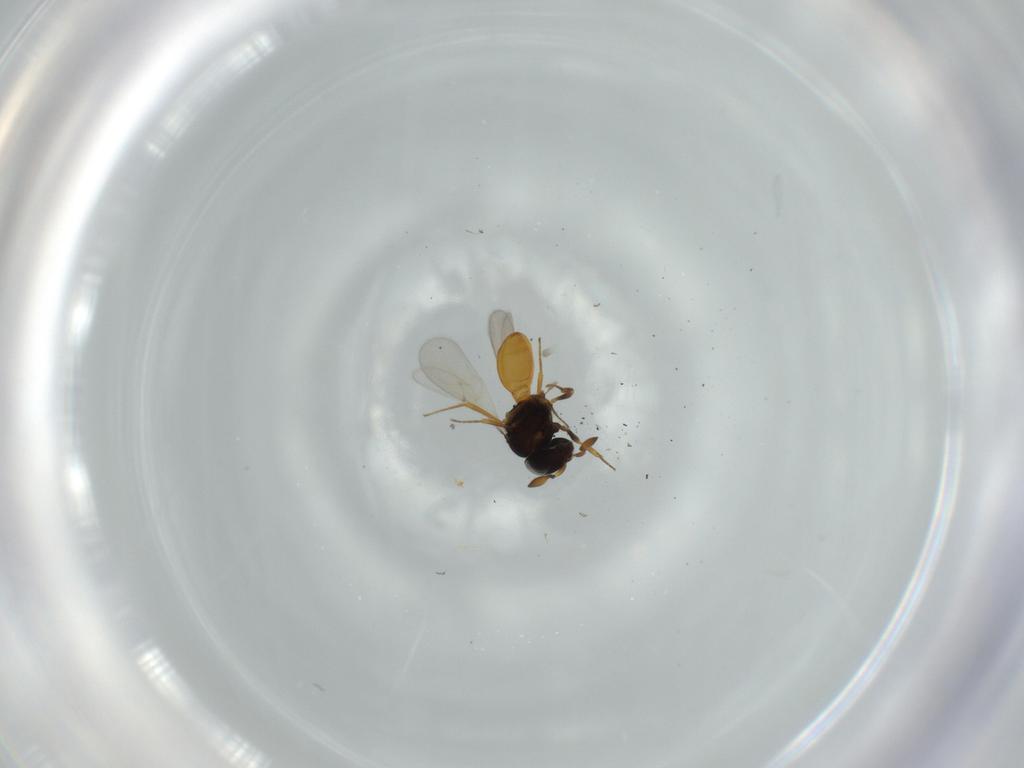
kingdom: Animalia
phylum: Arthropoda
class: Insecta
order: Hymenoptera
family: Scelionidae
